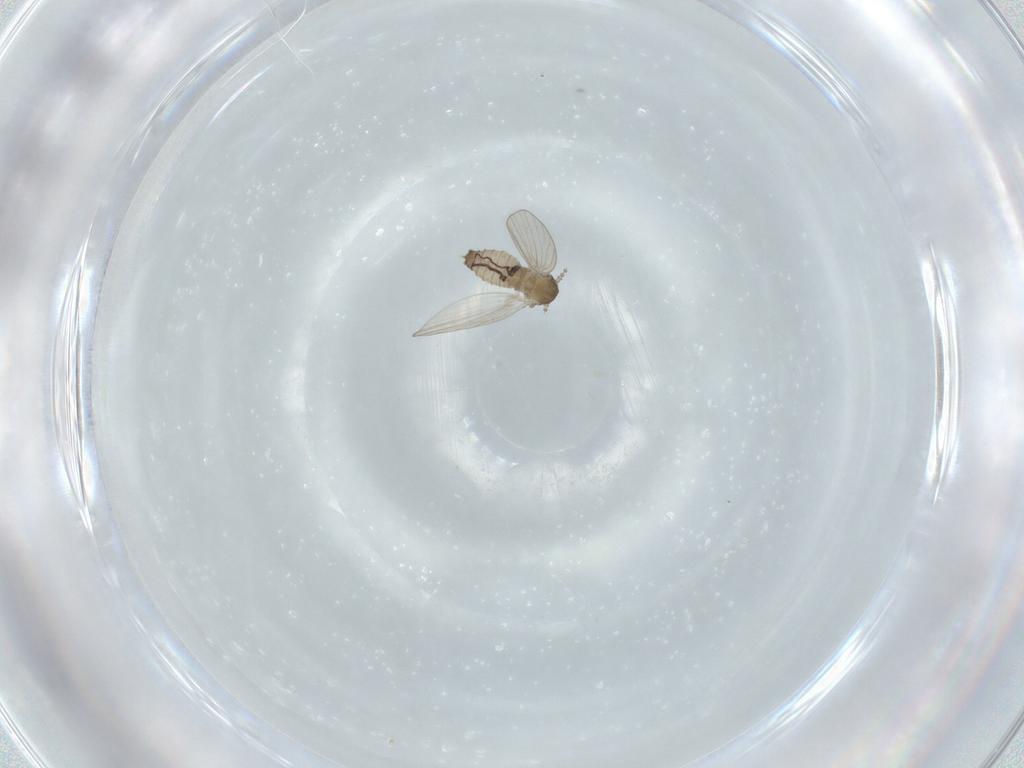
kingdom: Animalia
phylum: Arthropoda
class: Insecta
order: Diptera
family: Psychodidae
